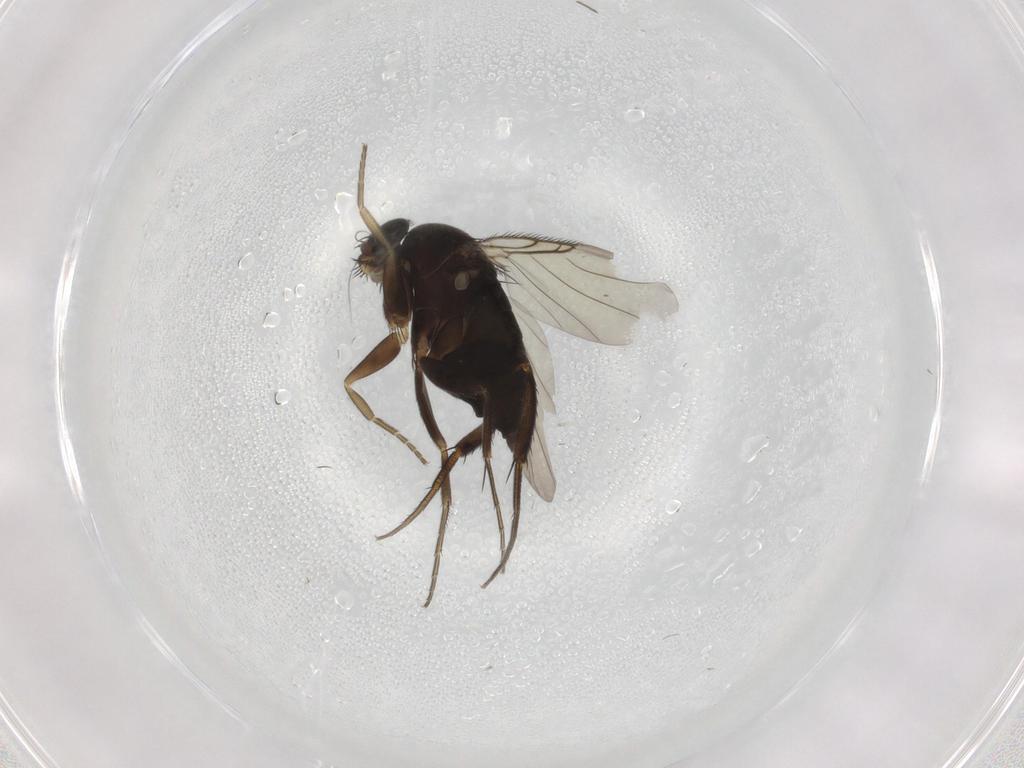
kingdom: Animalia
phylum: Arthropoda
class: Insecta
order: Diptera
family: Phoridae
